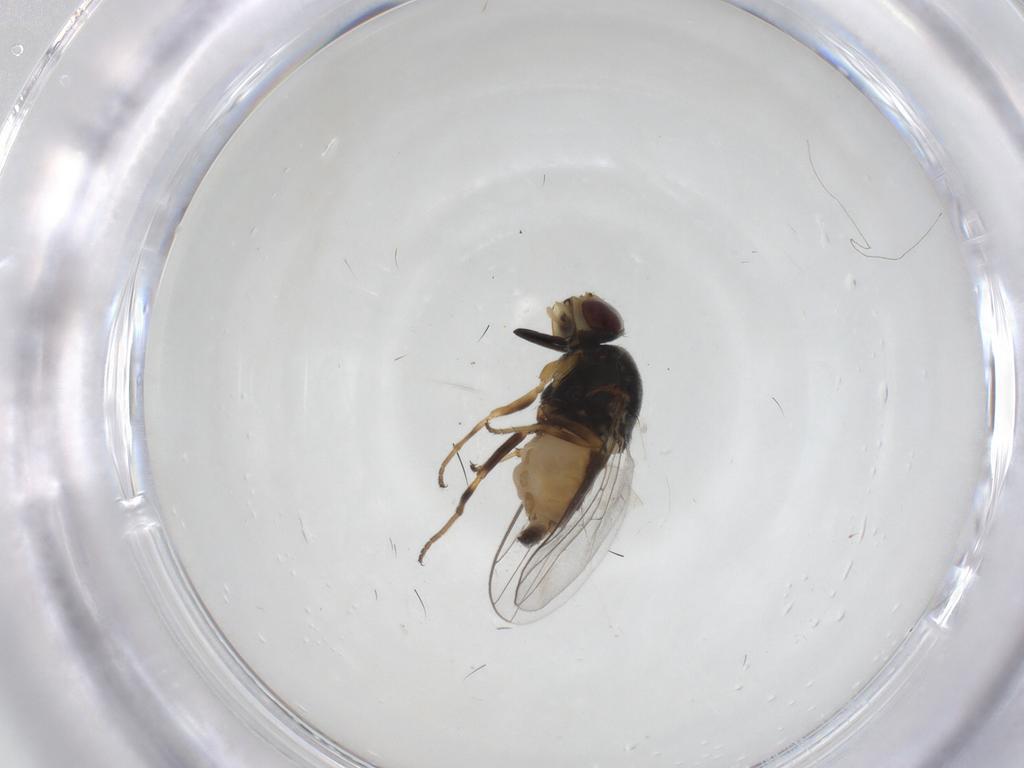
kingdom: Animalia
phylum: Arthropoda
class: Insecta
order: Diptera
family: Chloropidae
